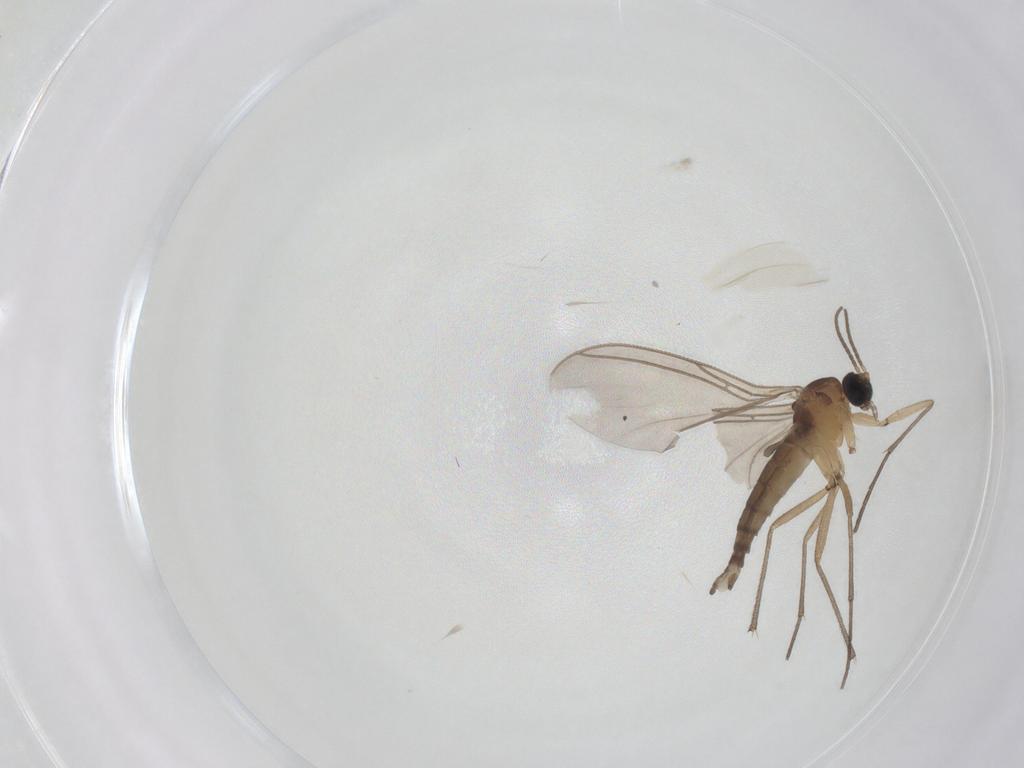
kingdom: Animalia
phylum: Arthropoda
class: Insecta
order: Diptera
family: Sciaridae
